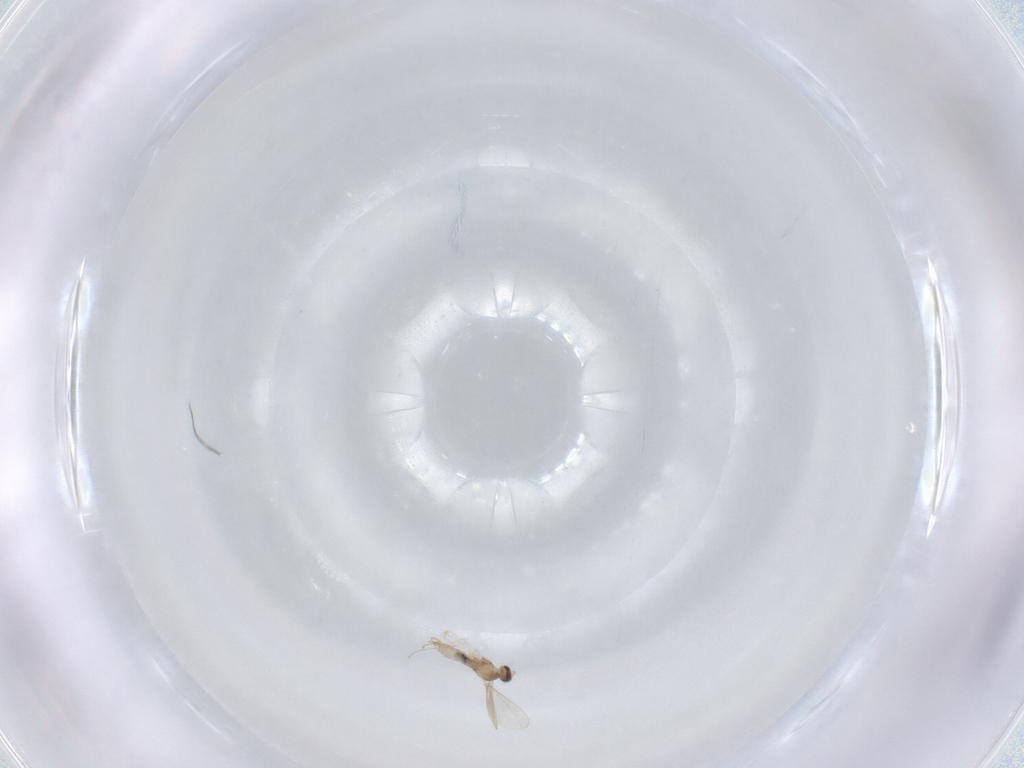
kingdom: Animalia
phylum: Arthropoda
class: Insecta
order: Diptera
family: Cecidomyiidae
